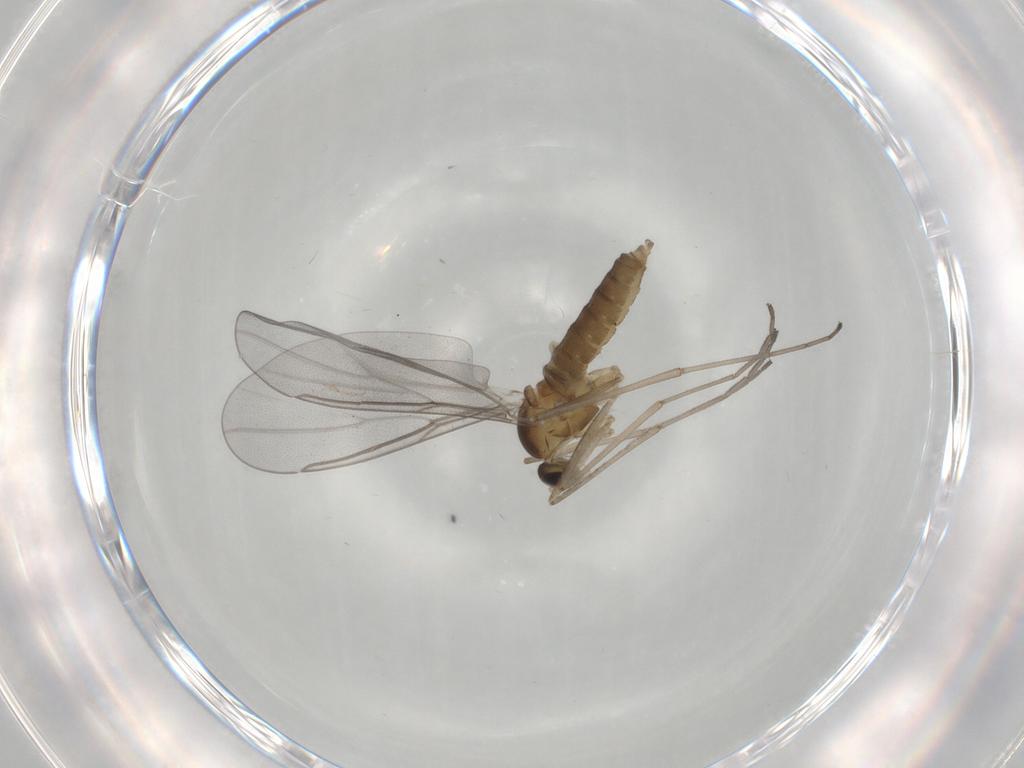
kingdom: Animalia
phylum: Arthropoda
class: Insecta
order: Diptera
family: Cecidomyiidae
